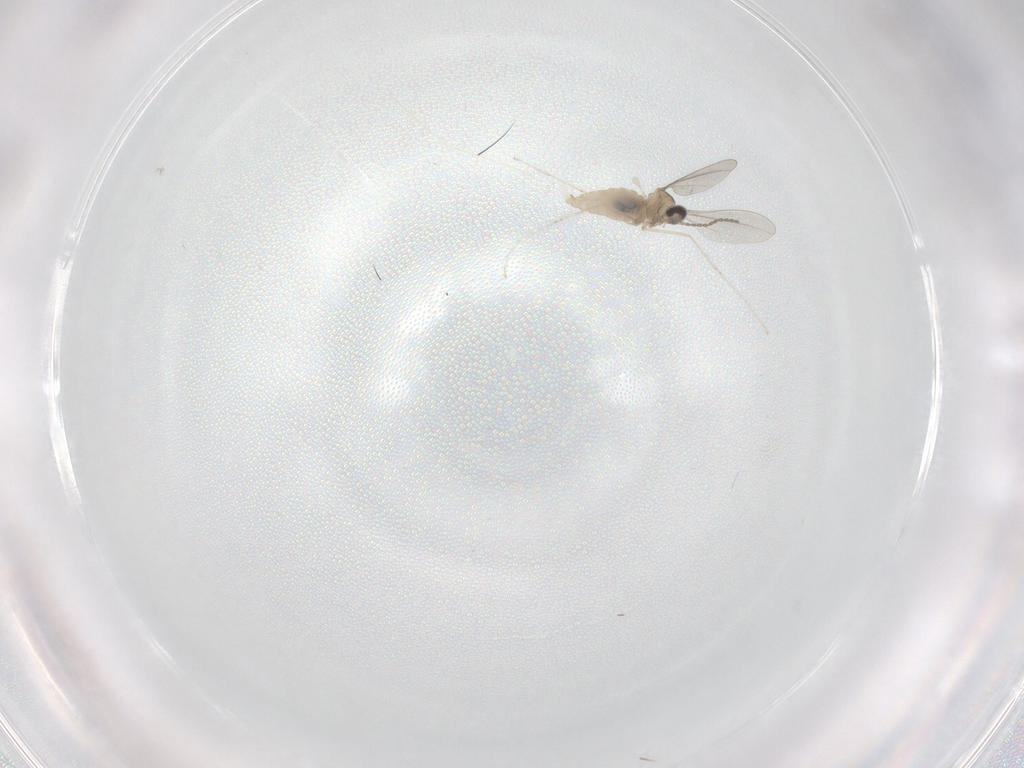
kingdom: Animalia
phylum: Arthropoda
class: Insecta
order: Diptera
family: Cecidomyiidae
